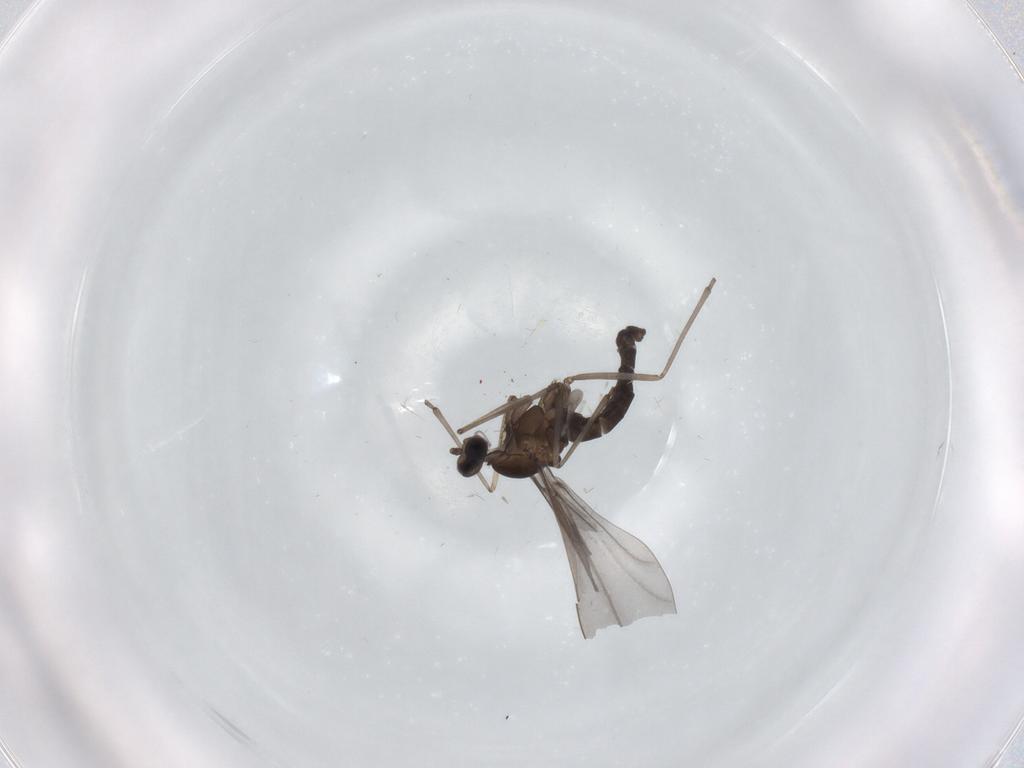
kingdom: Animalia
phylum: Arthropoda
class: Insecta
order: Diptera
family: Cecidomyiidae
